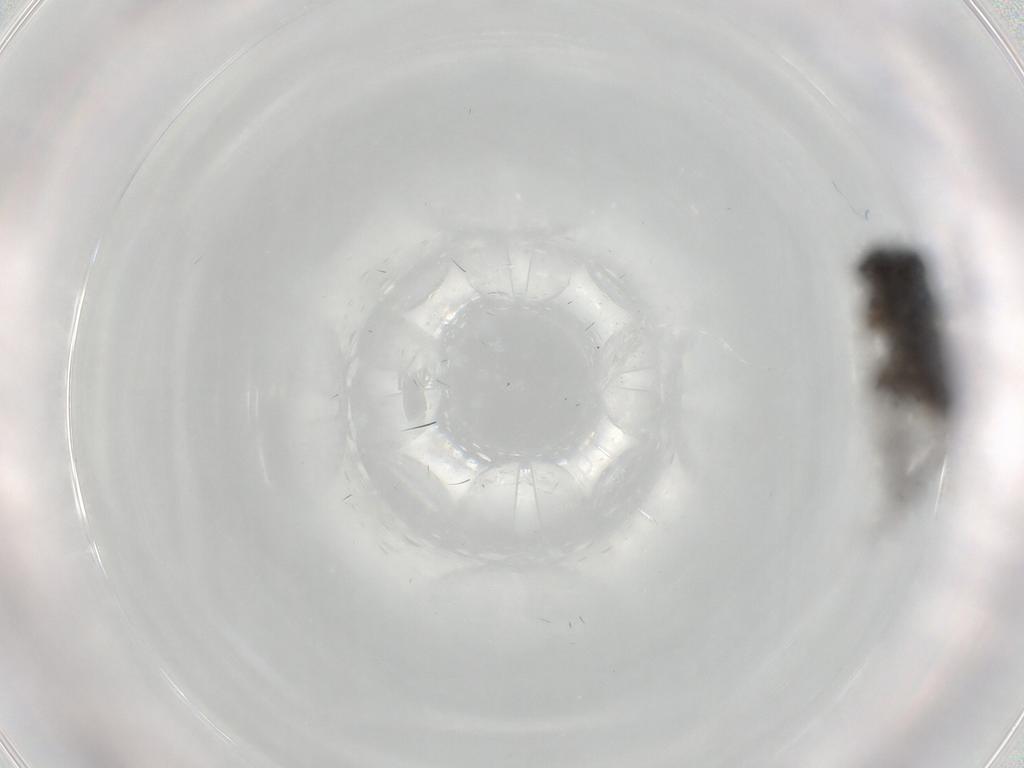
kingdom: Animalia
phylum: Arthropoda
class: Insecta
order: Diptera
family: Phoridae
